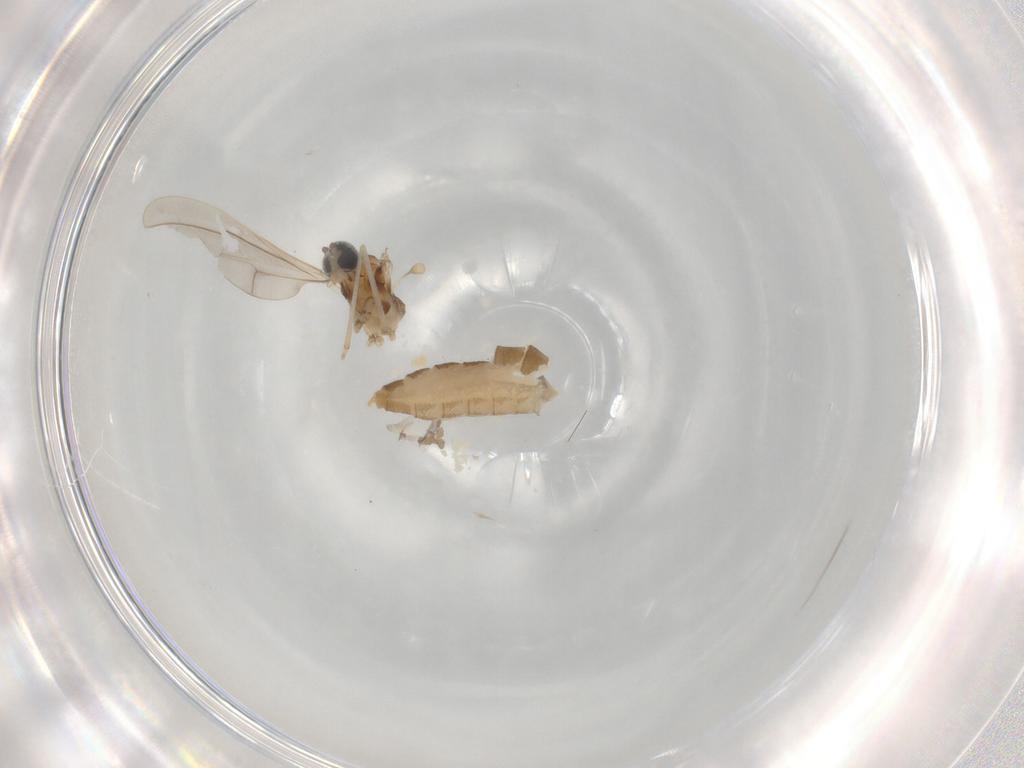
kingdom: Animalia
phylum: Arthropoda
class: Insecta
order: Diptera
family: Cecidomyiidae
